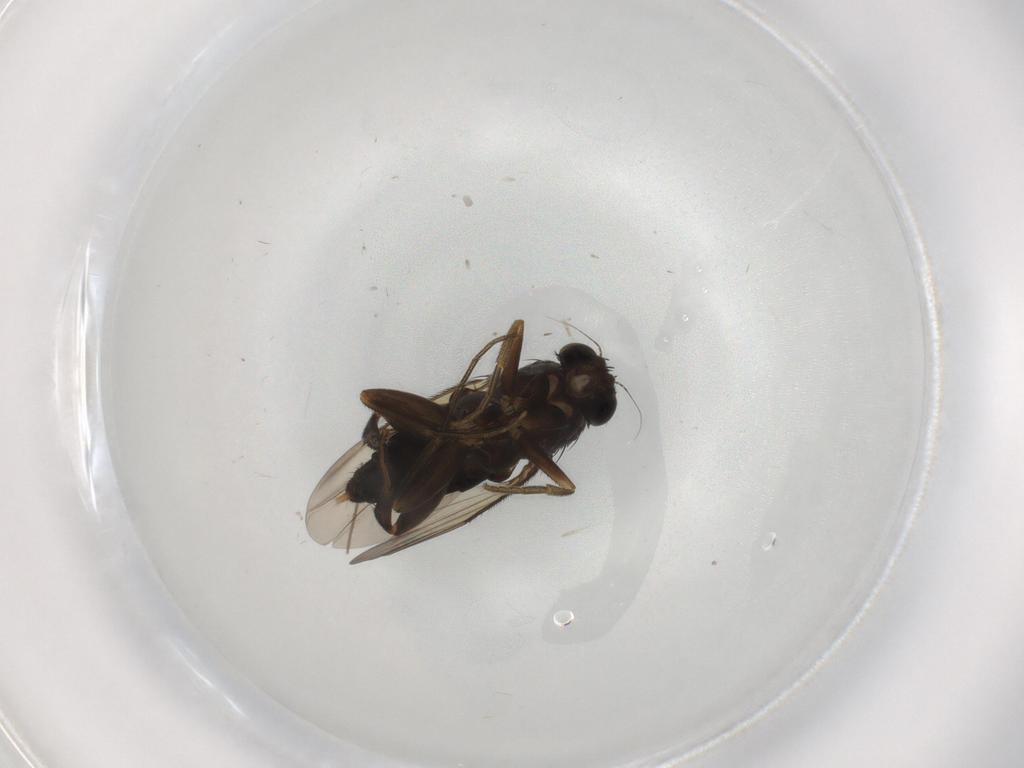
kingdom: Animalia
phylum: Arthropoda
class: Insecta
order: Diptera
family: Phoridae
